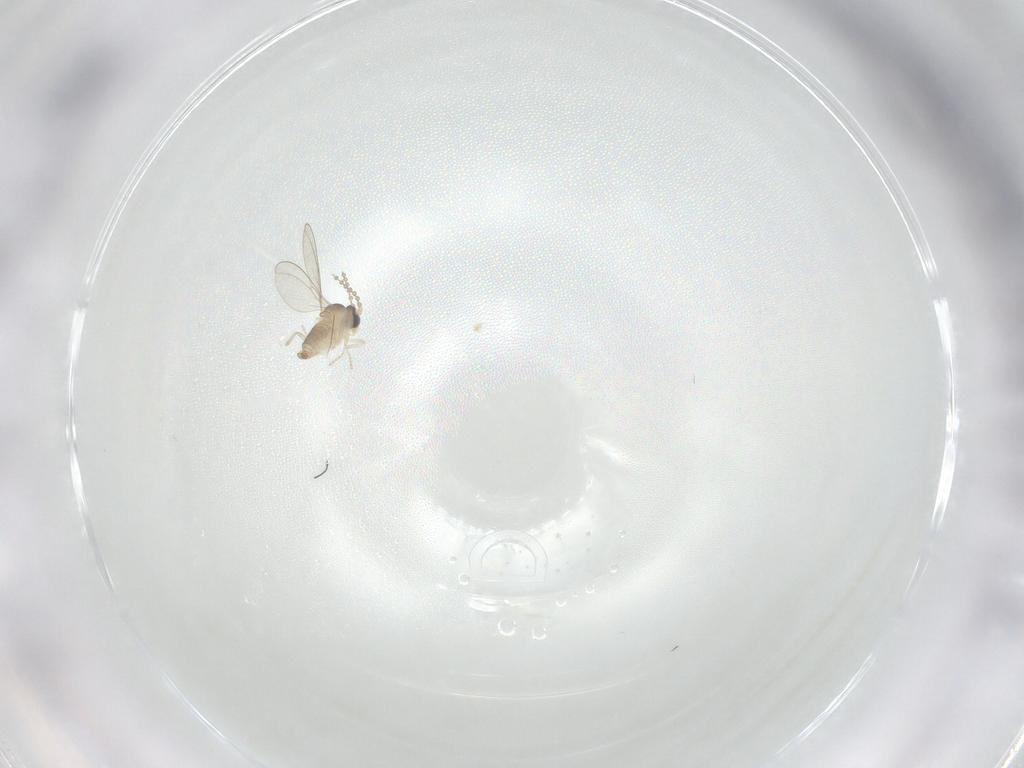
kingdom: Animalia
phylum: Arthropoda
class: Insecta
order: Diptera
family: Cecidomyiidae
